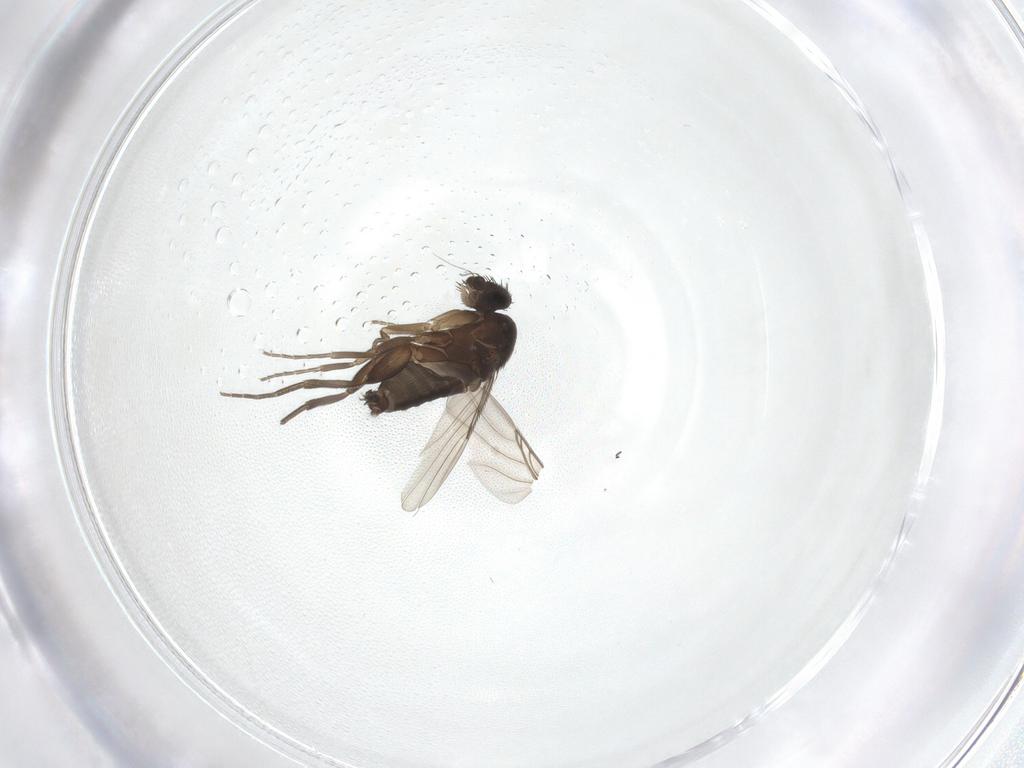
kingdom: Animalia
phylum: Arthropoda
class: Insecta
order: Diptera
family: Phoridae
